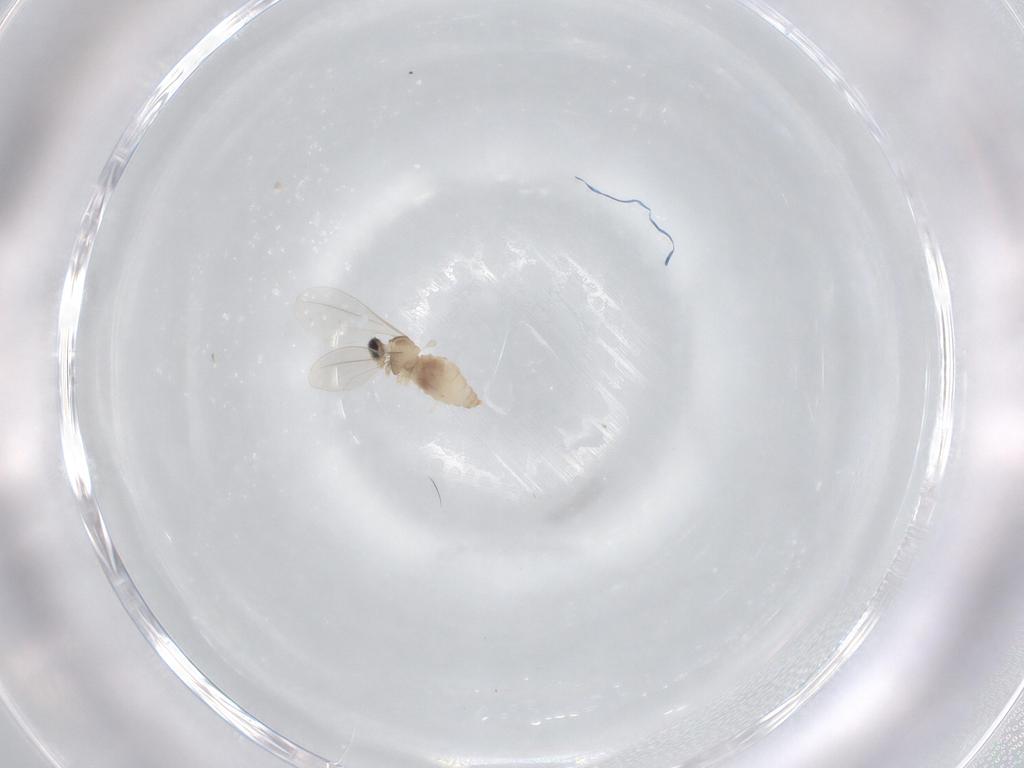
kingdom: Animalia
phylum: Arthropoda
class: Insecta
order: Diptera
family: Cecidomyiidae
